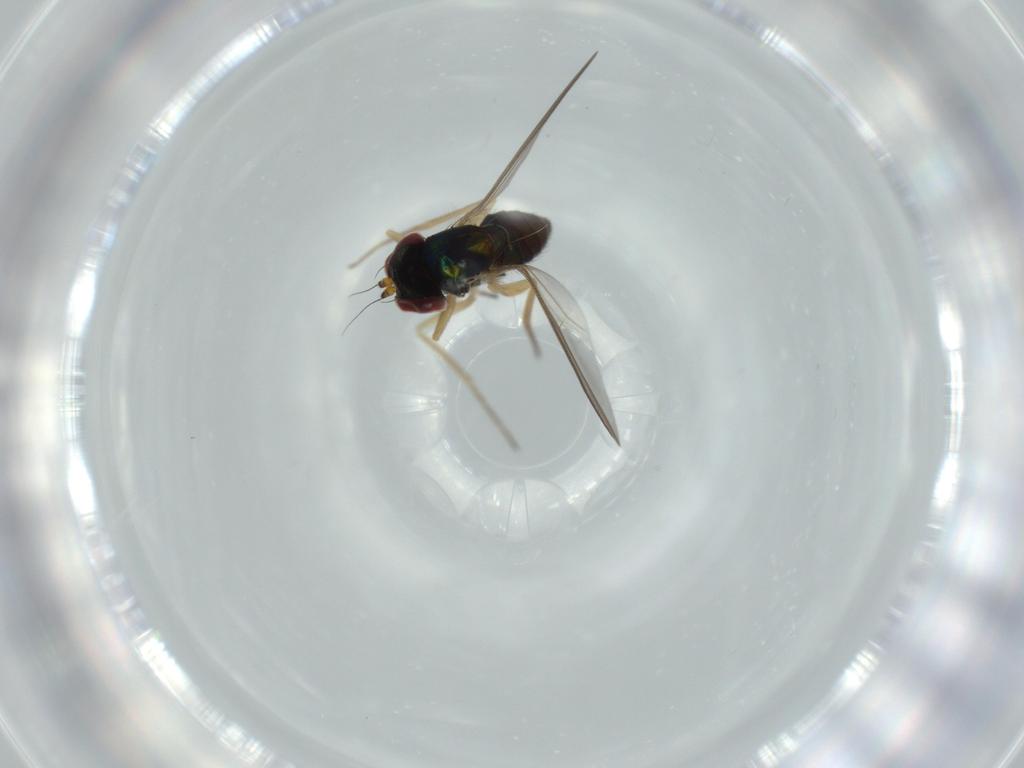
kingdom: Animalia
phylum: Arthropoda
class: Insecta
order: Diptera
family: Dolichopodidae
